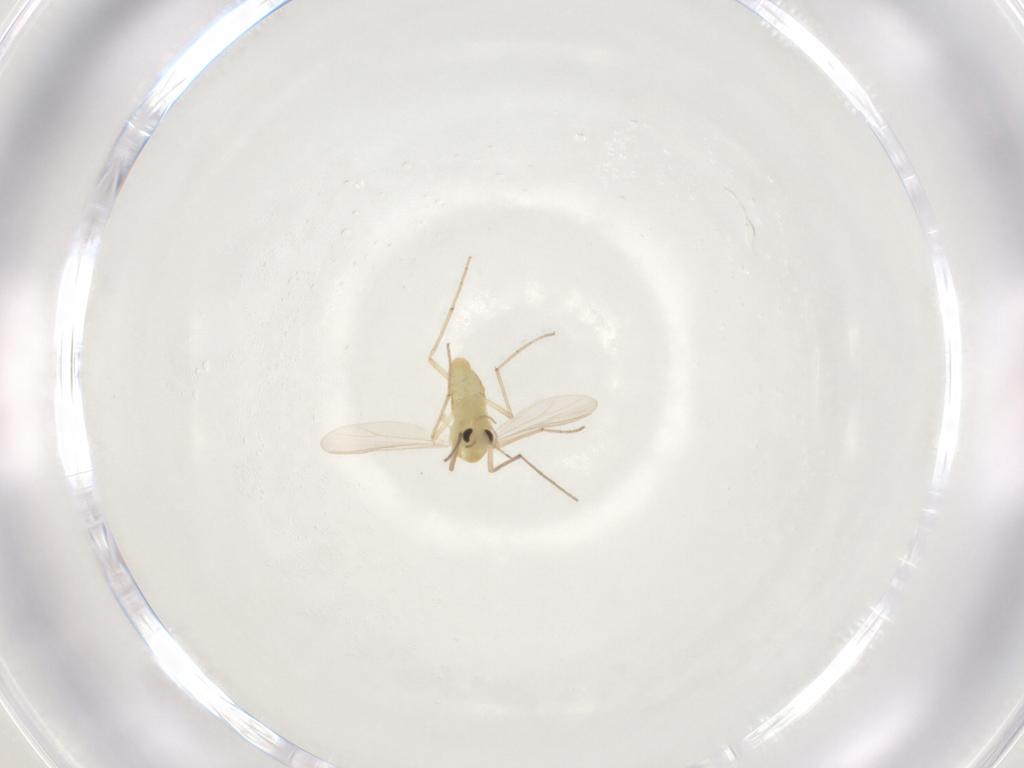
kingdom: Animalia
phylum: Arthropoda
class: Insecta
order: Diptera
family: Chironomidae
